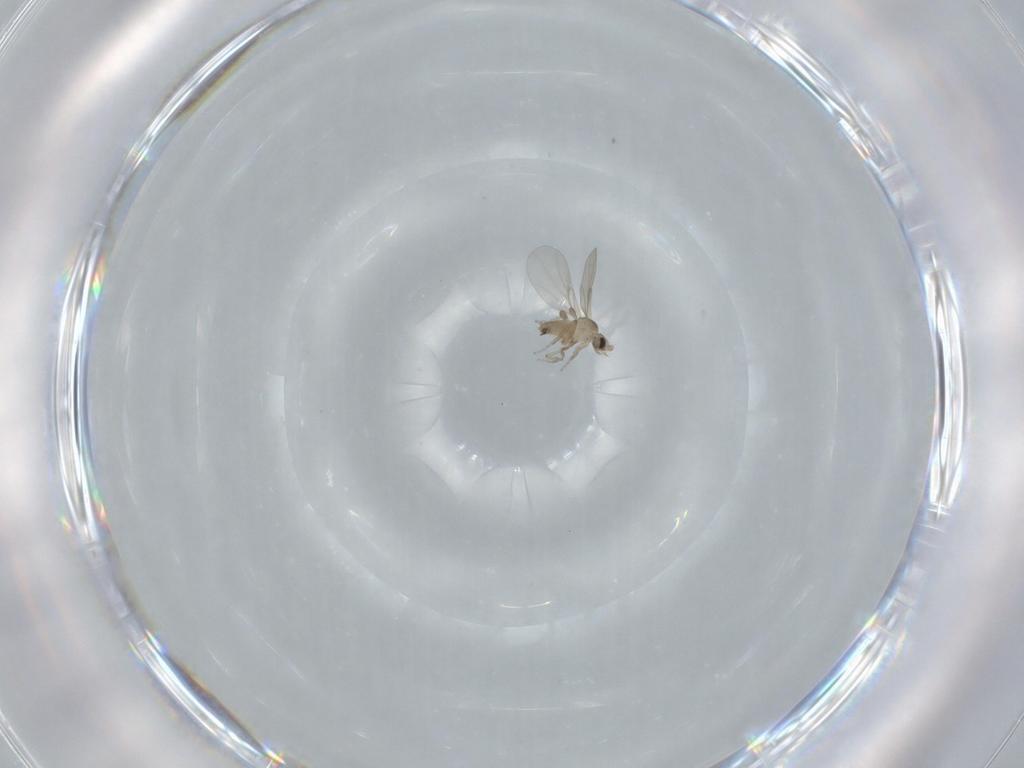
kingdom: Animalia
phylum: Arthropoda
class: Insecta
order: Diptera
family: Phoridae
